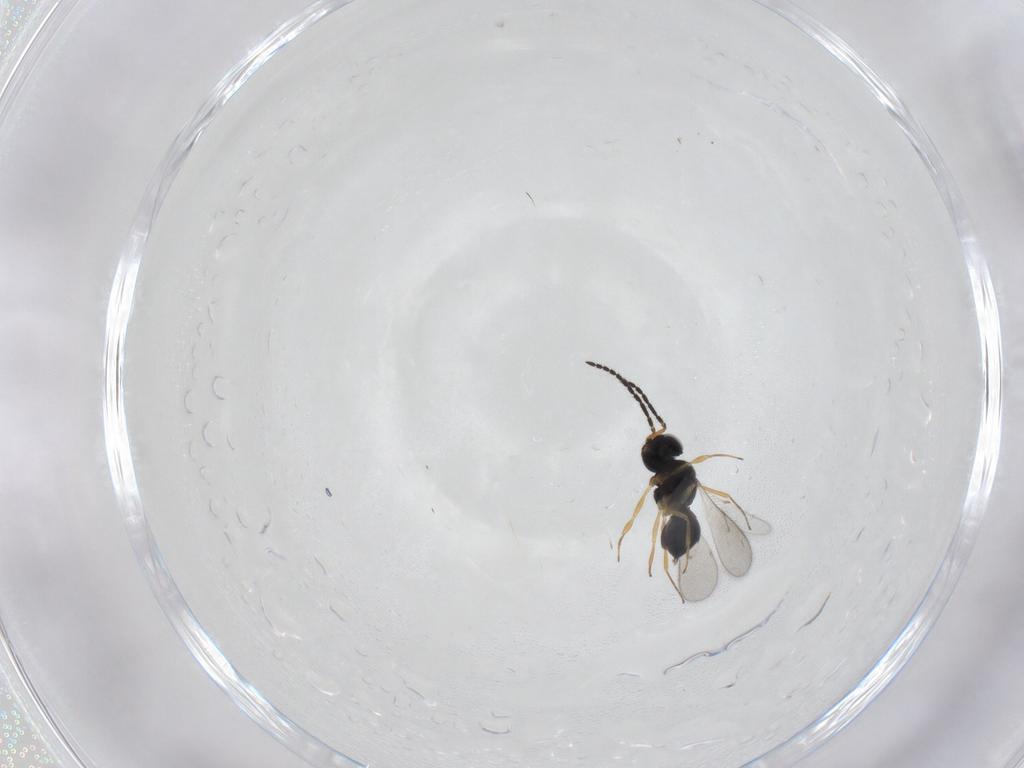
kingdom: Animalia
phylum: Arthropoda
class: Insecta
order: Hymenoptera
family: Scelionidae
